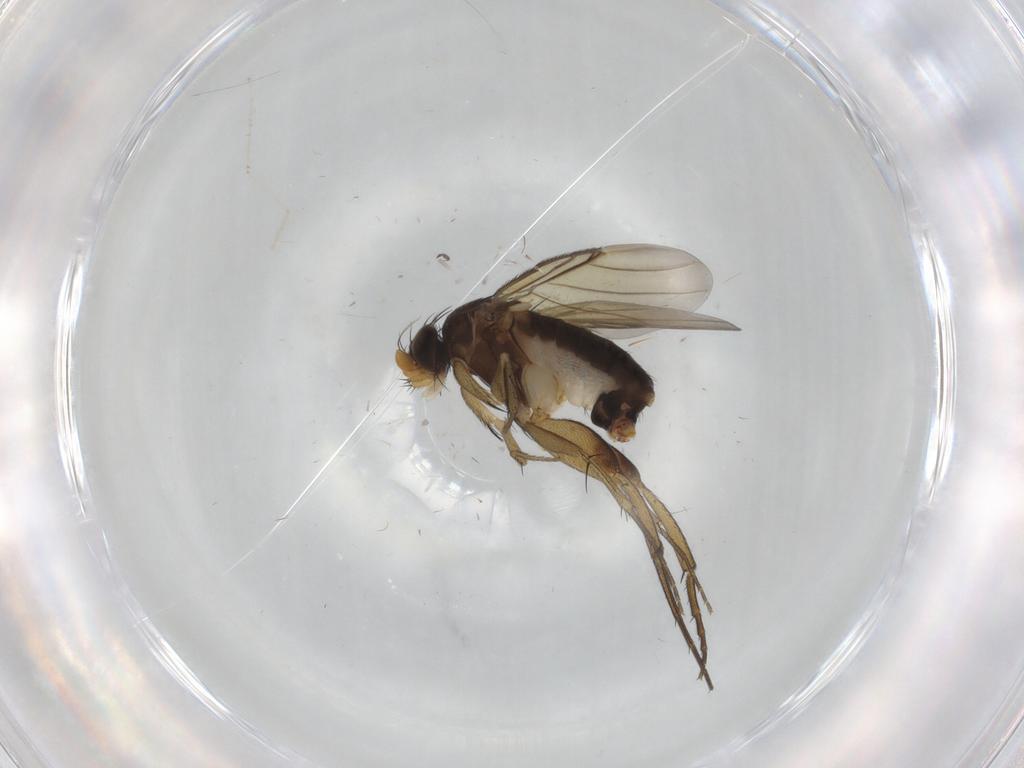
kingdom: Animalia
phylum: Arthropoda
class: Insecta
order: Diptera
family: Phoridae
